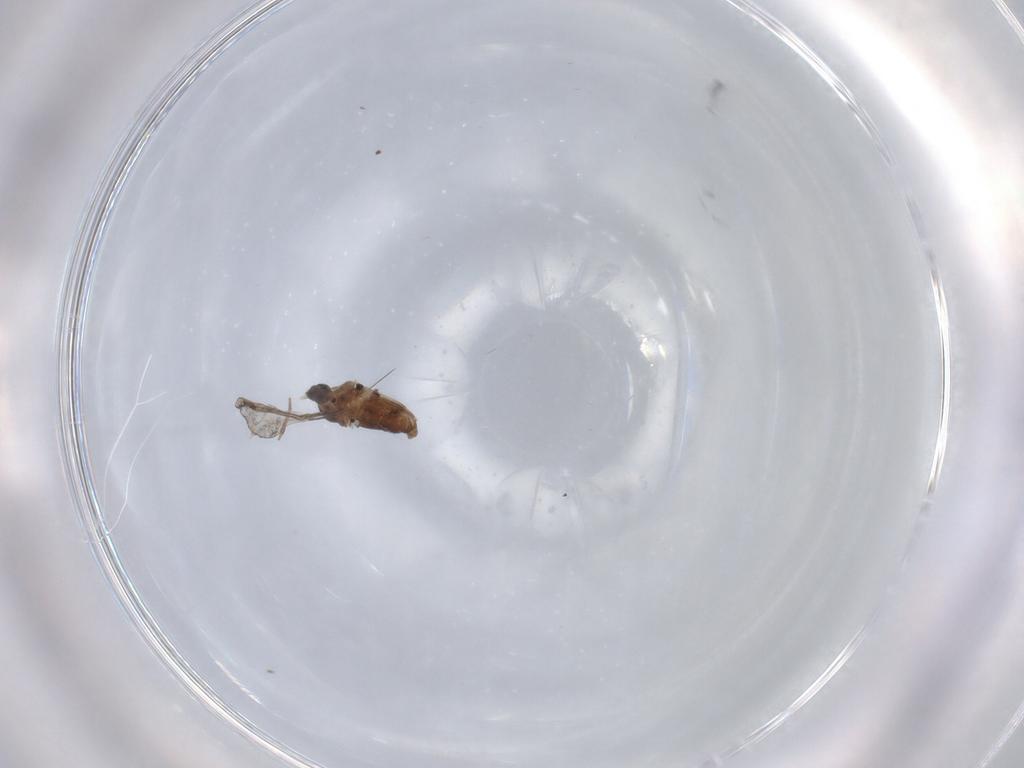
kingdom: Animalia
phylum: Arthropoda
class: Insecta
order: Diptera
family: Cecidomyiidae
